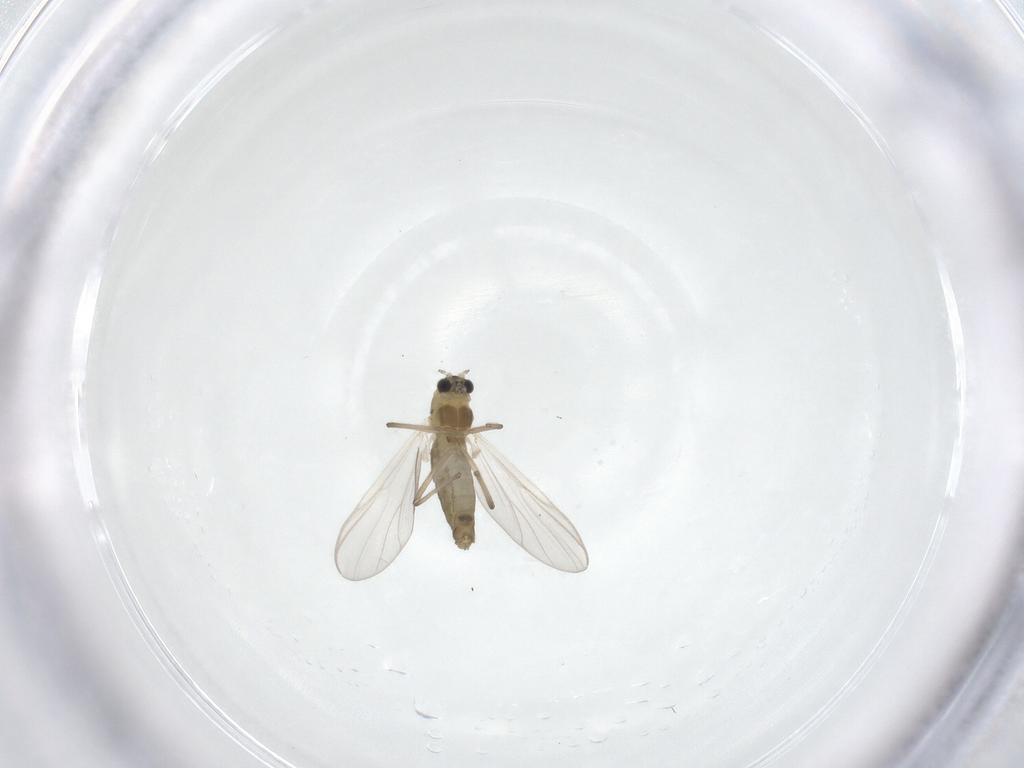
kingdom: Animalia
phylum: Arthropoda
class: Insecta
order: Diptera
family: Chironomidae
